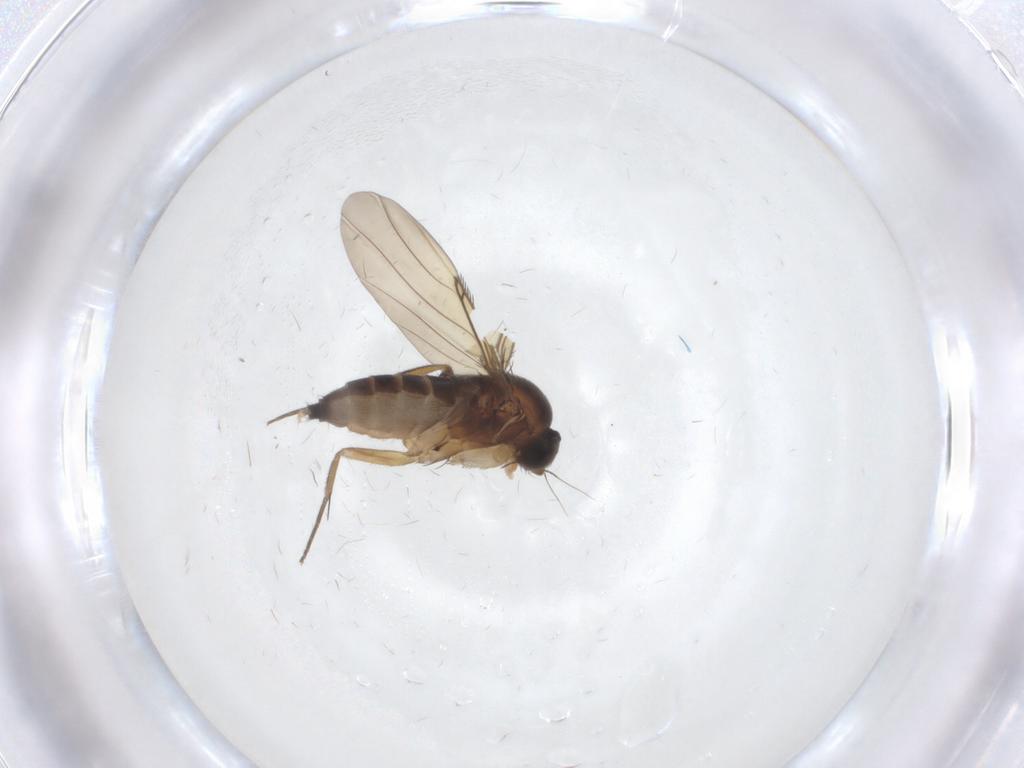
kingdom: Animalia
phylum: Arthropoda
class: Insecta
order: Diptera
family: Phoridae
